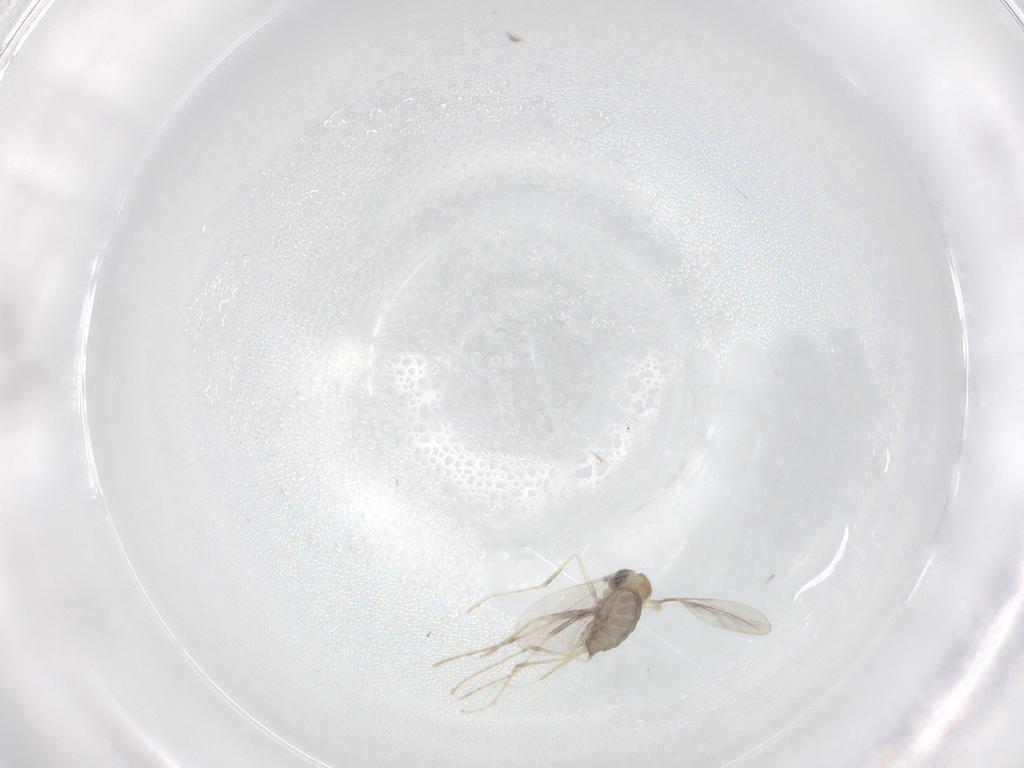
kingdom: Animalia
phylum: Arthropoda
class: Insecta
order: Diptera
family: Cecidomyiidae
